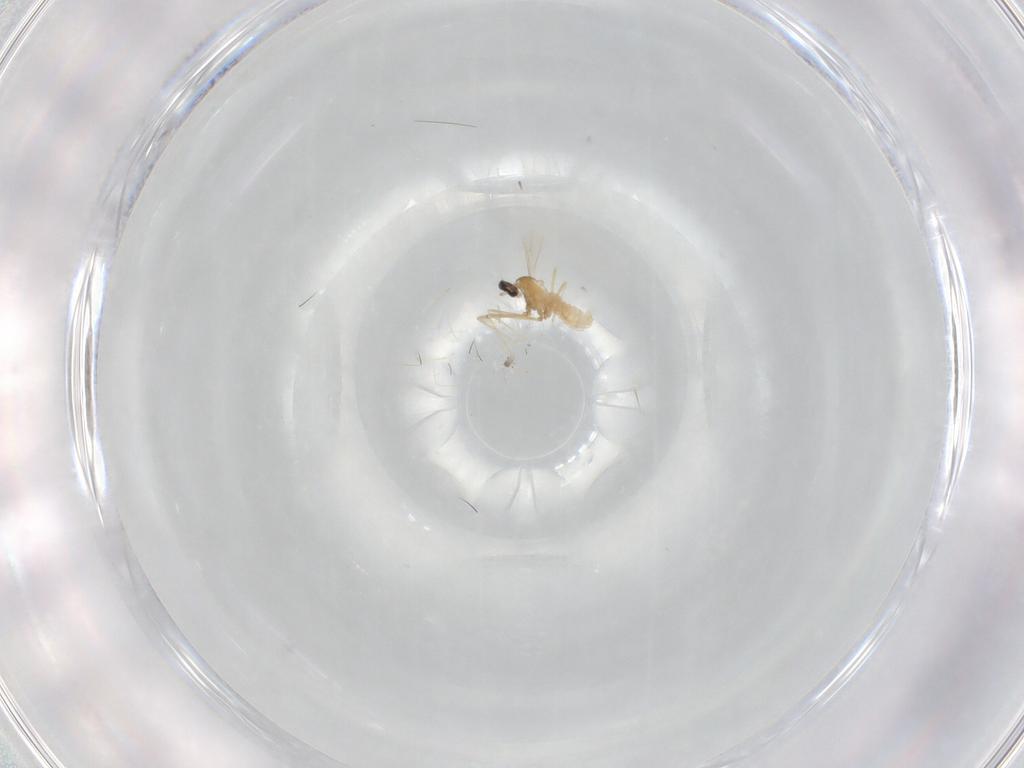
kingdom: Animalia
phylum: Arthropoda
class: Insecta
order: Diptera
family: Cecidomyiidae
